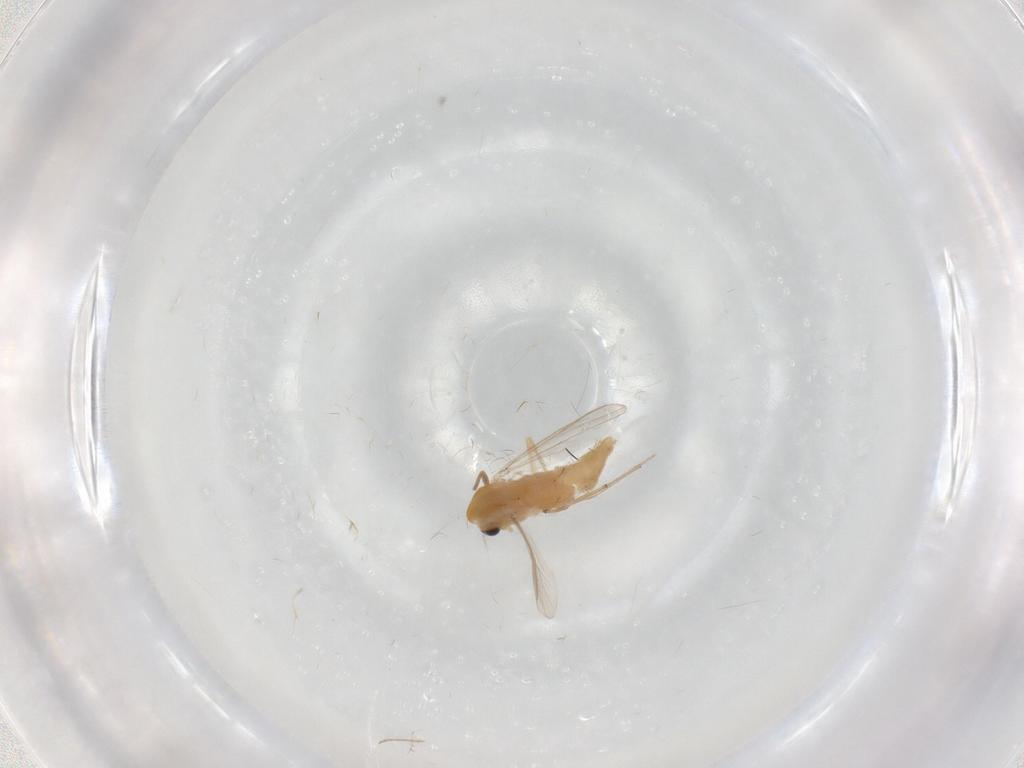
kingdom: Animalia
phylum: Arthropoda
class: Insecta
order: Diptera
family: Chironomidae
